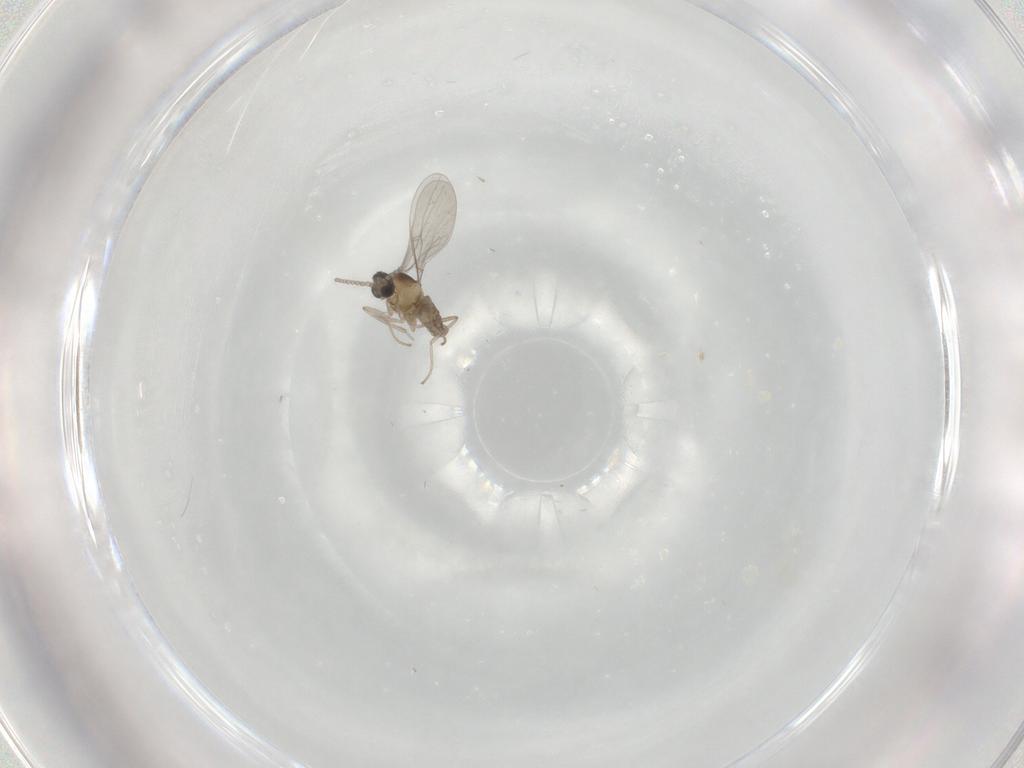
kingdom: Animalia
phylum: Arthropoda
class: Insecta
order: Diptera
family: Cecidomyiidae
